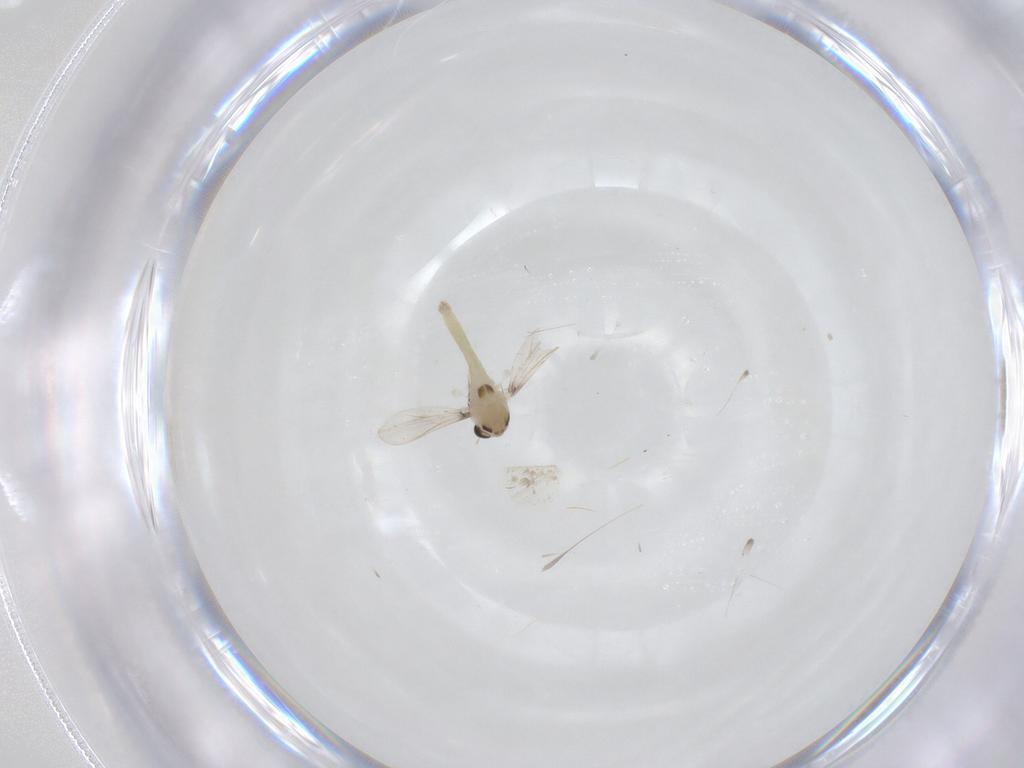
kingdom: Animalia
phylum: Arthropoda
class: Insecta
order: Diptera
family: Chironomidae
